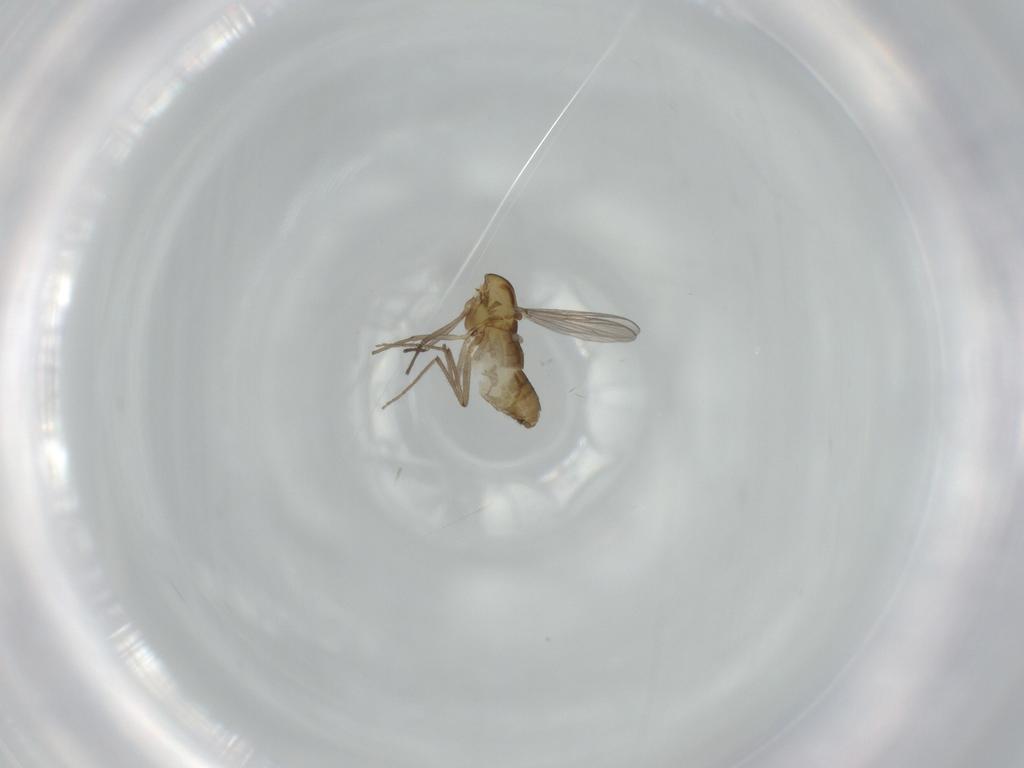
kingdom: Animalia
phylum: Arthropoda
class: Insecta
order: Diptera
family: Chironomidae
